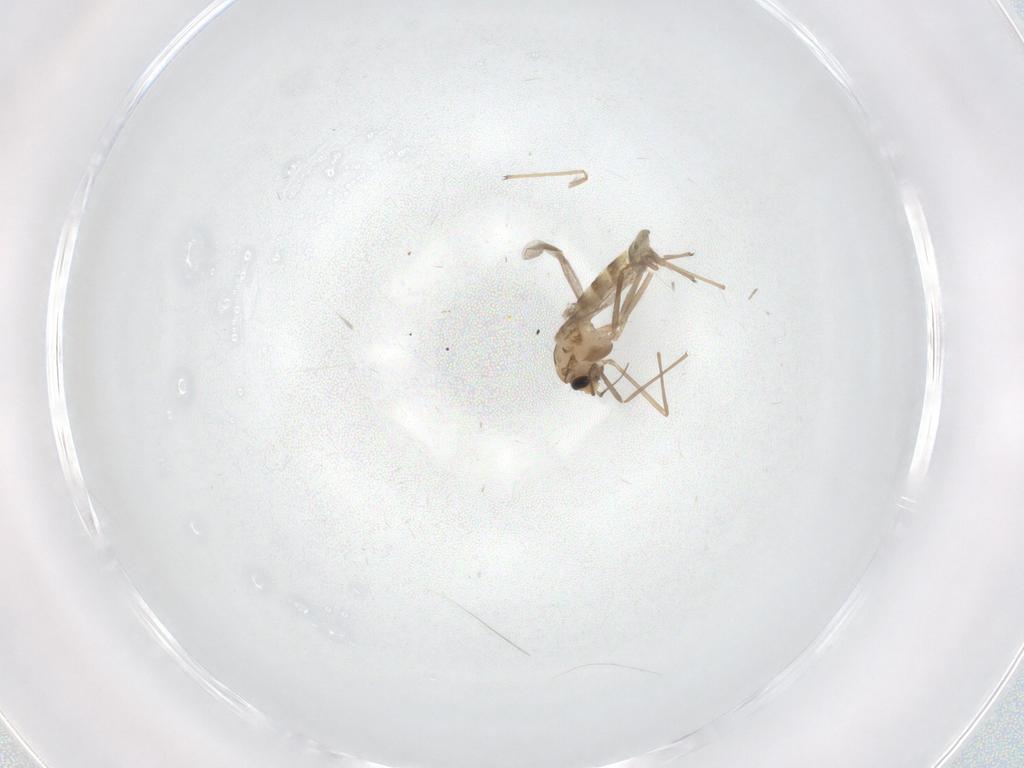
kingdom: Animalia
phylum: Arthropoda
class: Insecta
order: Diptera
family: Chironomidae
